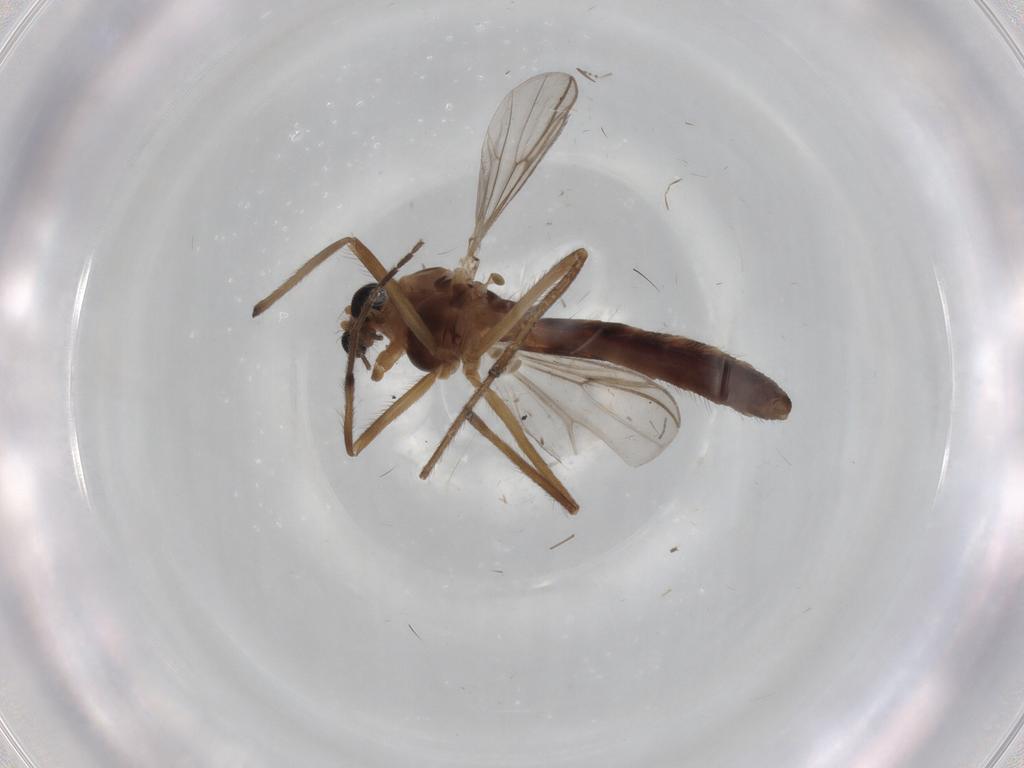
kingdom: Animalia
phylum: Arthropoda
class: Insecta
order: Diptera
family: Chironomidae
